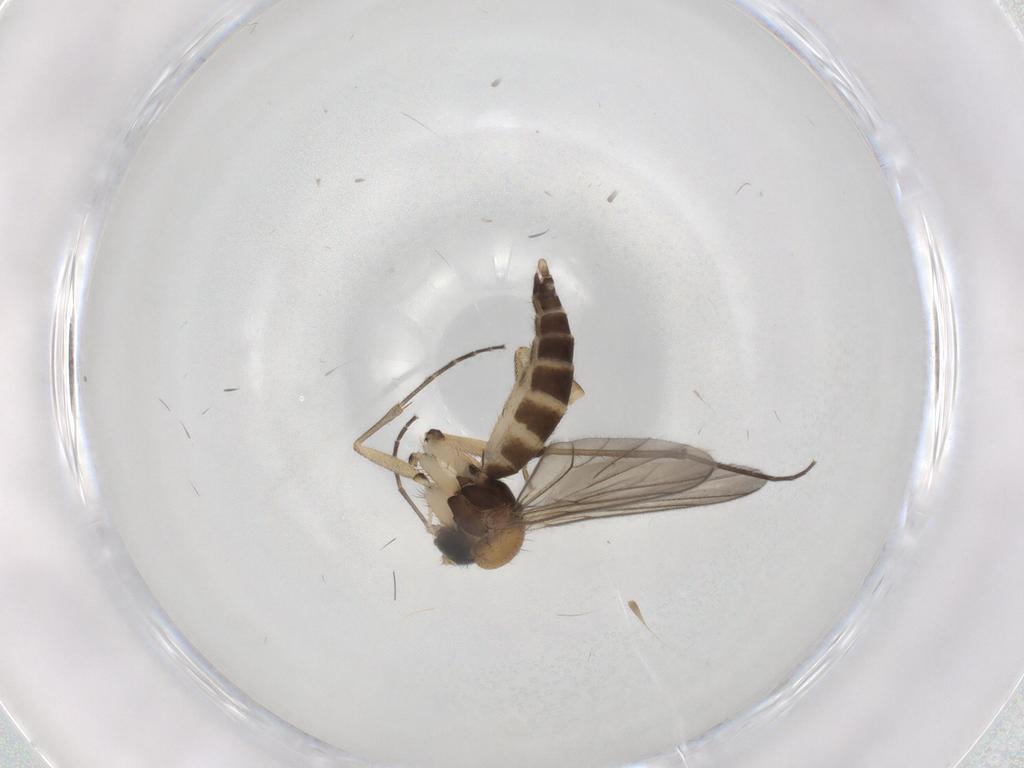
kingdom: Animalia
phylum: Arthropoda
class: Insecta
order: Diptera
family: Phoridae
